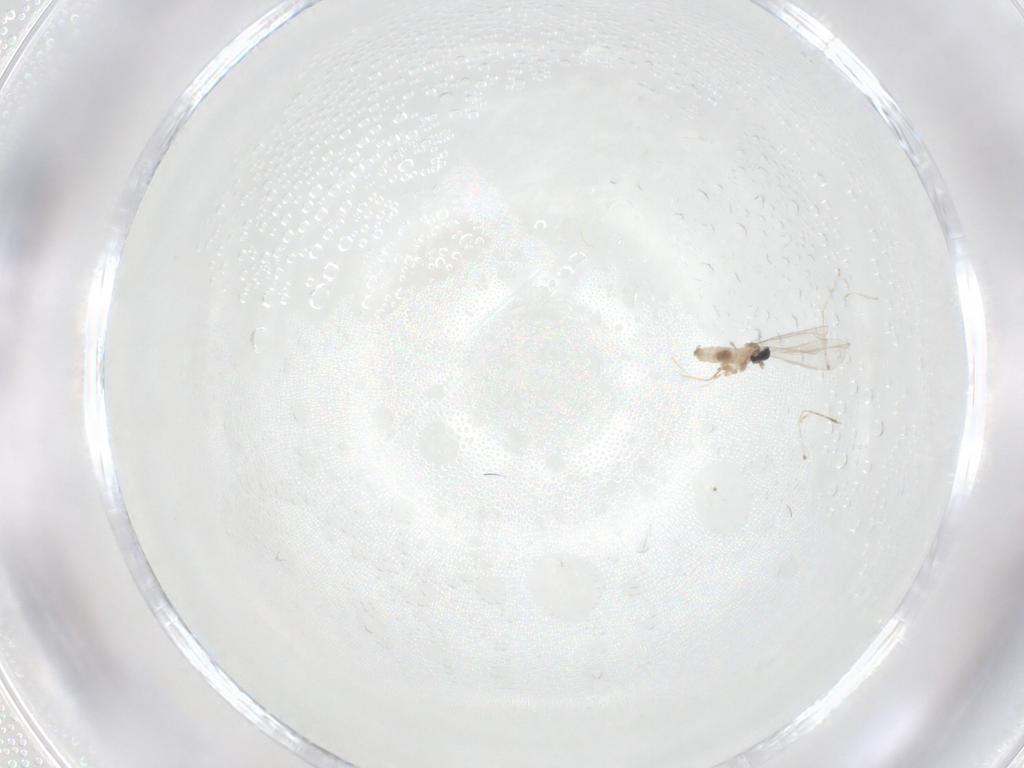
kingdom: Animalia
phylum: Arthropoda
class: Insecta
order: Diptera
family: Cecidomyiidae
